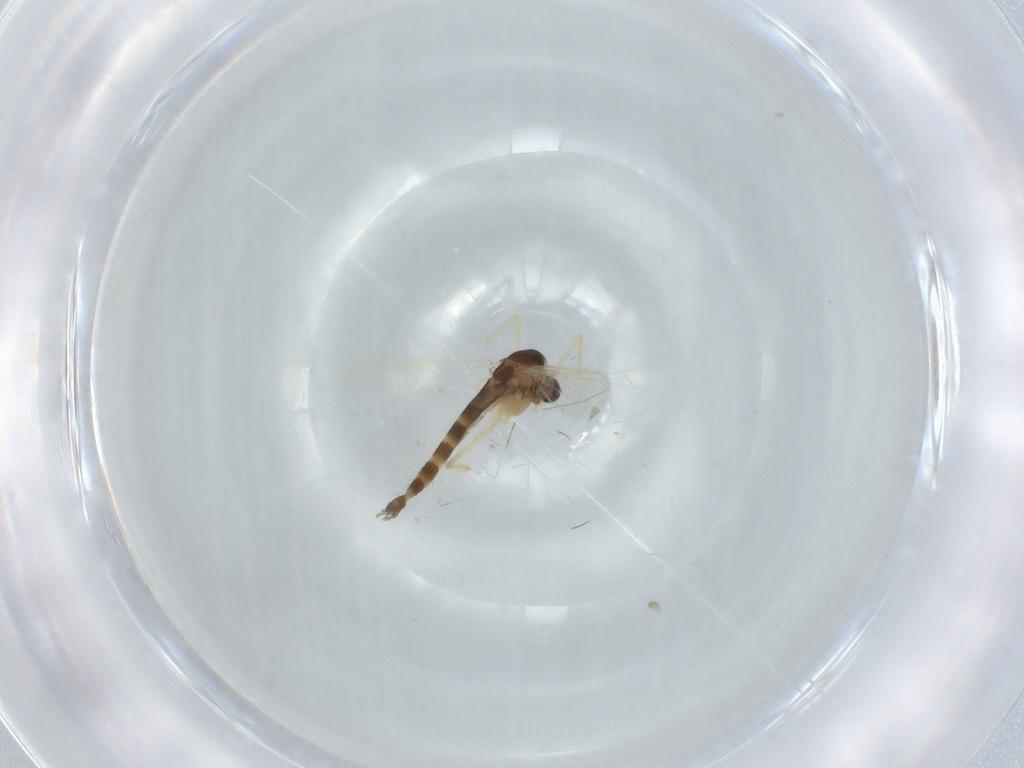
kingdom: Animalia
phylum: Arthropoda
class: Insecta
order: Diptera
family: Chironomidae
